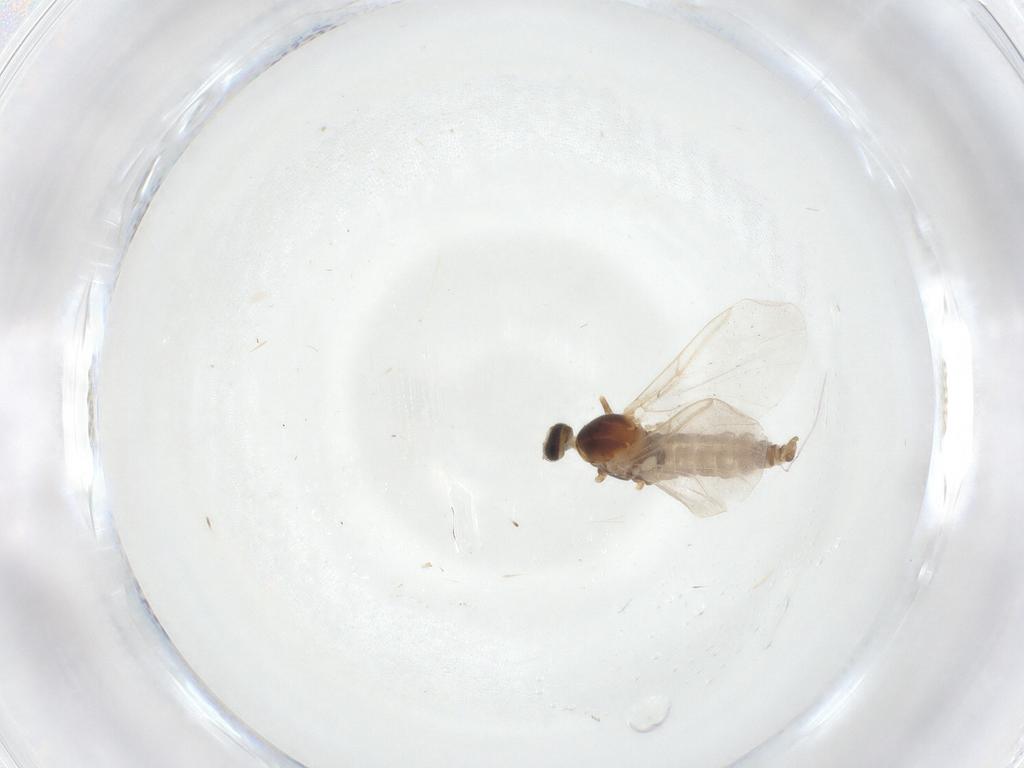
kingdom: Animalia
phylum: Arthropoda
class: Insecta
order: Diptera
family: Cecidomyiidae
